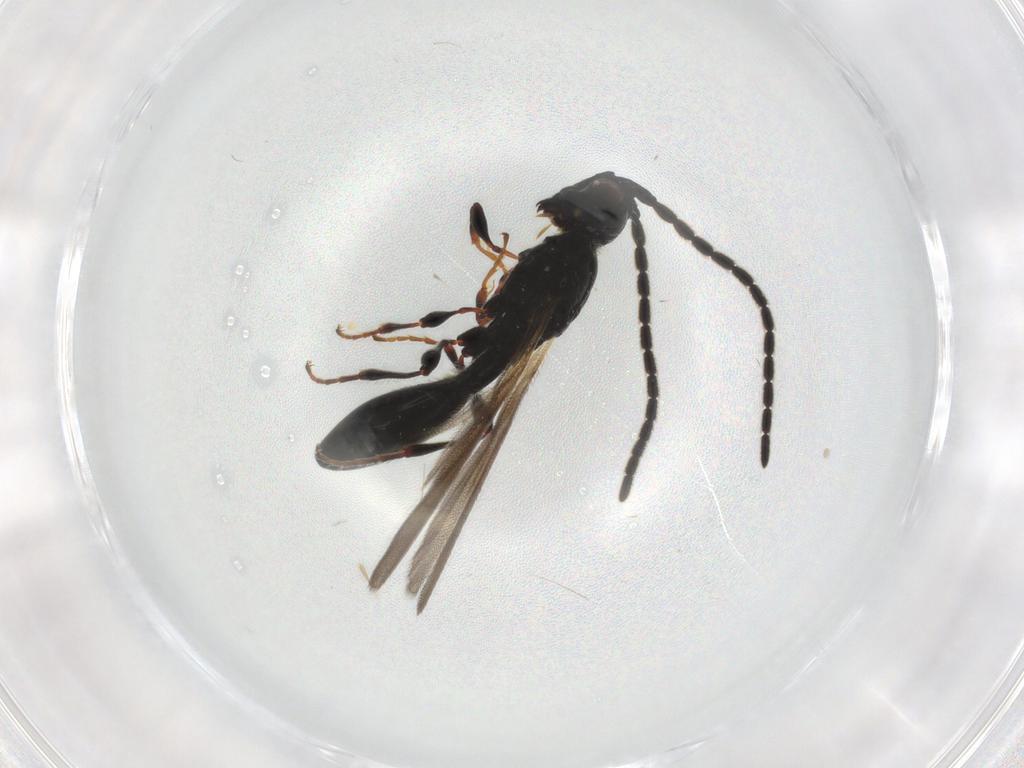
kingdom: Animalia
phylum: Arthropoda
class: Insecta
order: Hymenoptera
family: Diapriidae
